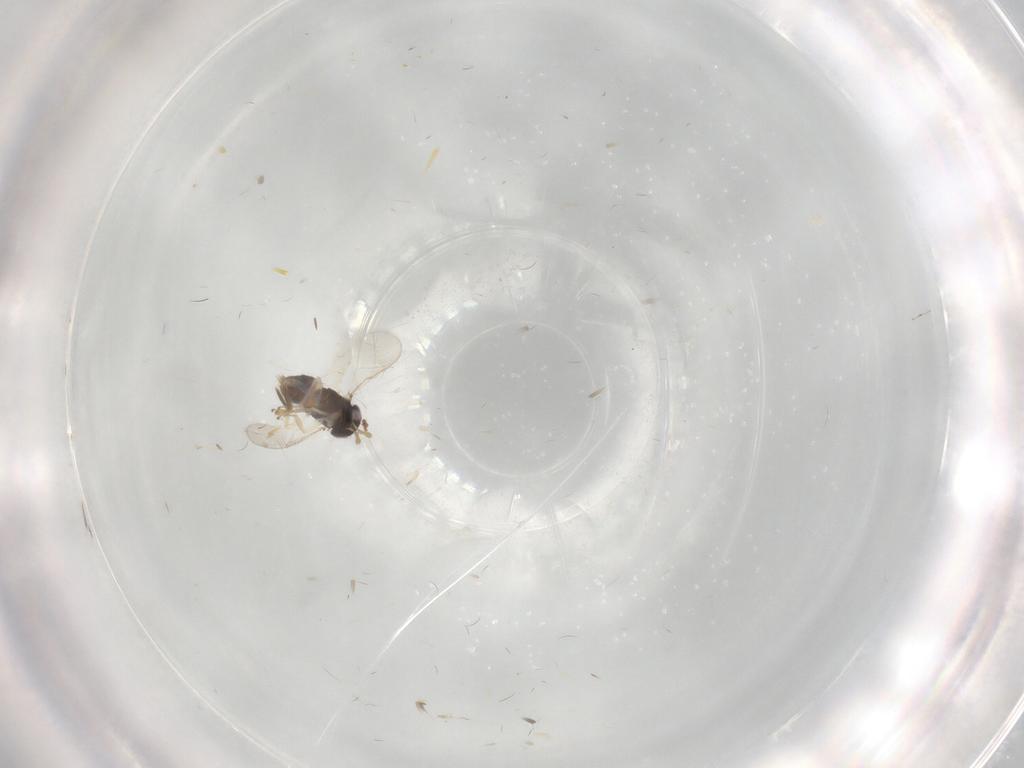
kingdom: Animalia
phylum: Arthropoda
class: Insecta
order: Hymenoptera
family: Aphelinidae
